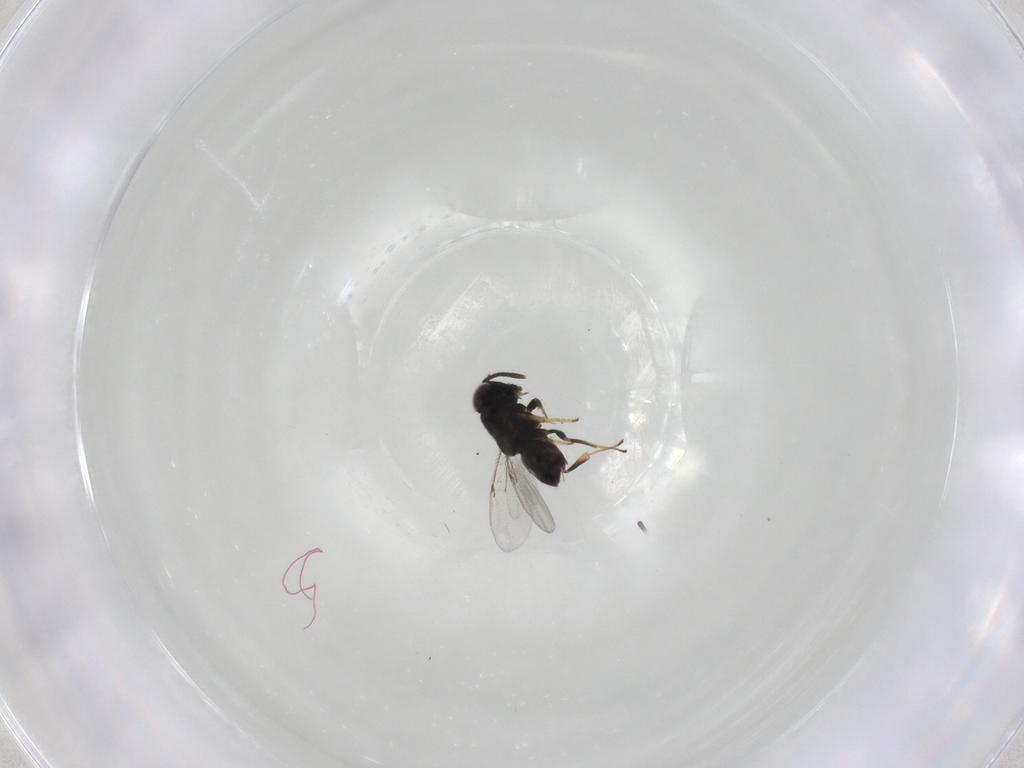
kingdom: Animalia
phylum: Arthropoda
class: Insecta
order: Hymenoptera
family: Encyrtidae
